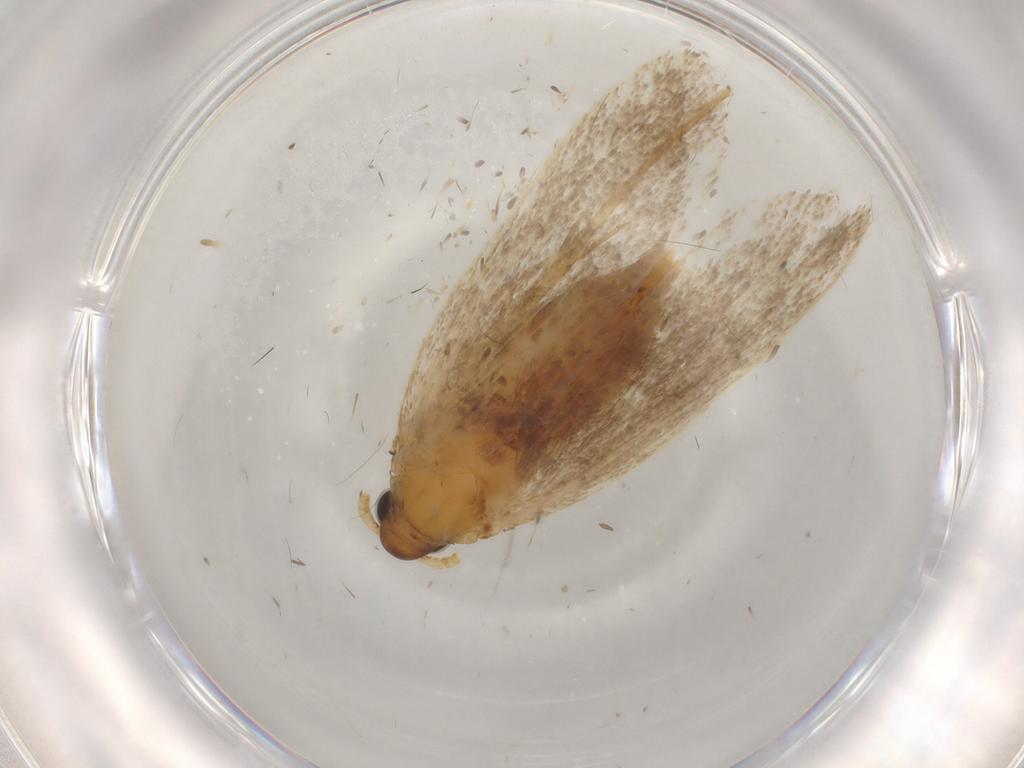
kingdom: Animalia
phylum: Arthropoda
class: Insecta
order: Lepidoptera
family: Lecithoceridae
